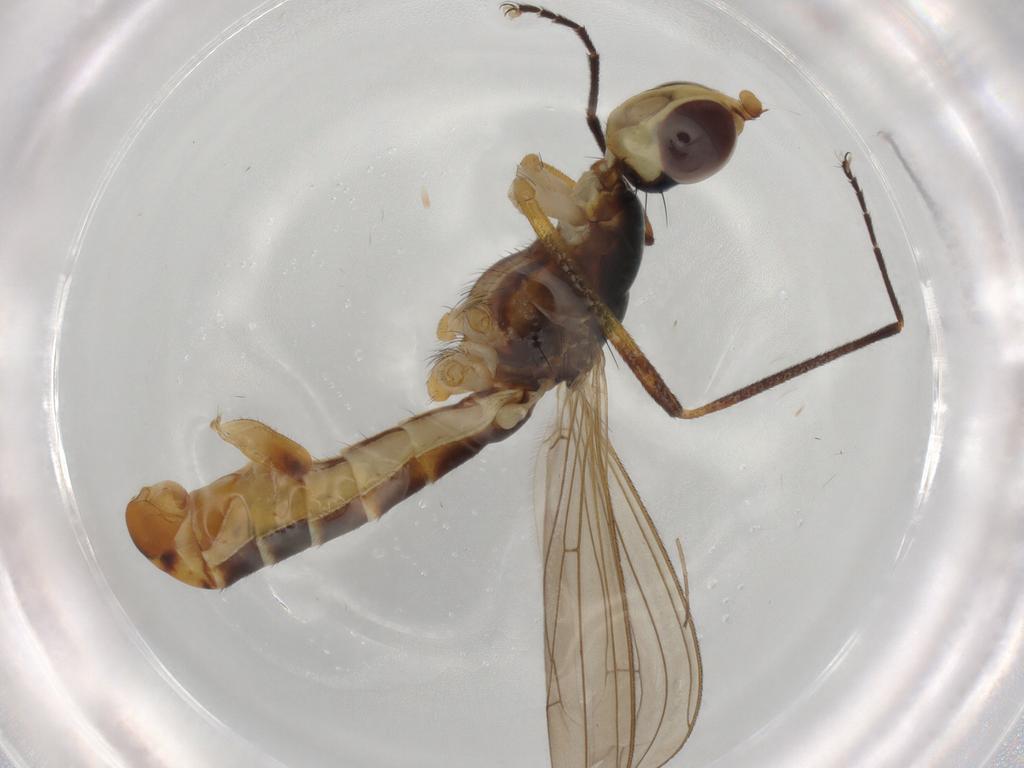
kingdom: Animalia
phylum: Arthropoda
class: Insecta
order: Diptera
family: Chironomidae
